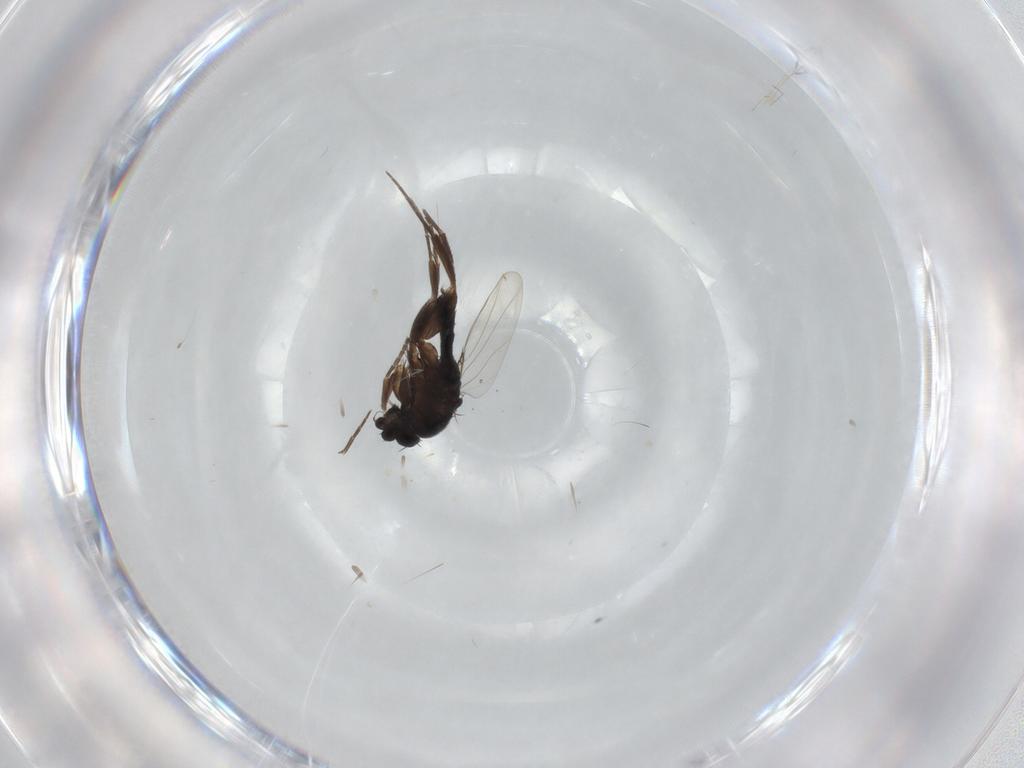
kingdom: Animalia
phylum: Arthropoda
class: Insecta
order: Diptera
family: Phoridae
